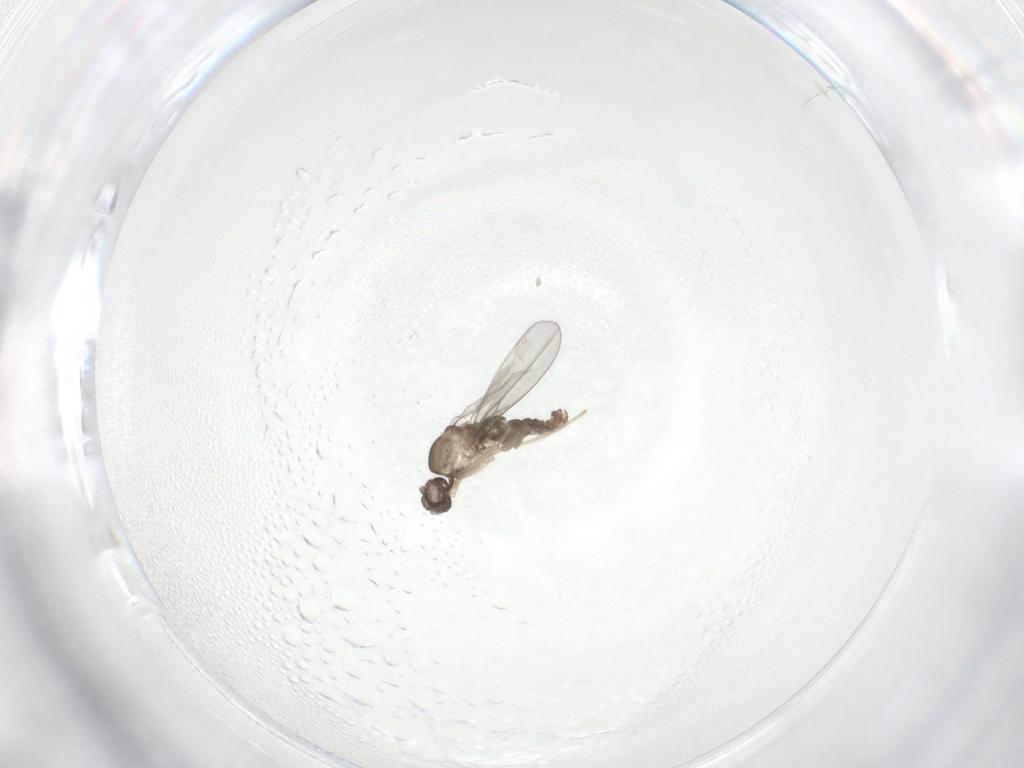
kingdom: Animalia
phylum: Arthropoda
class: Insecta
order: Diptera
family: Cecidomyiidae
